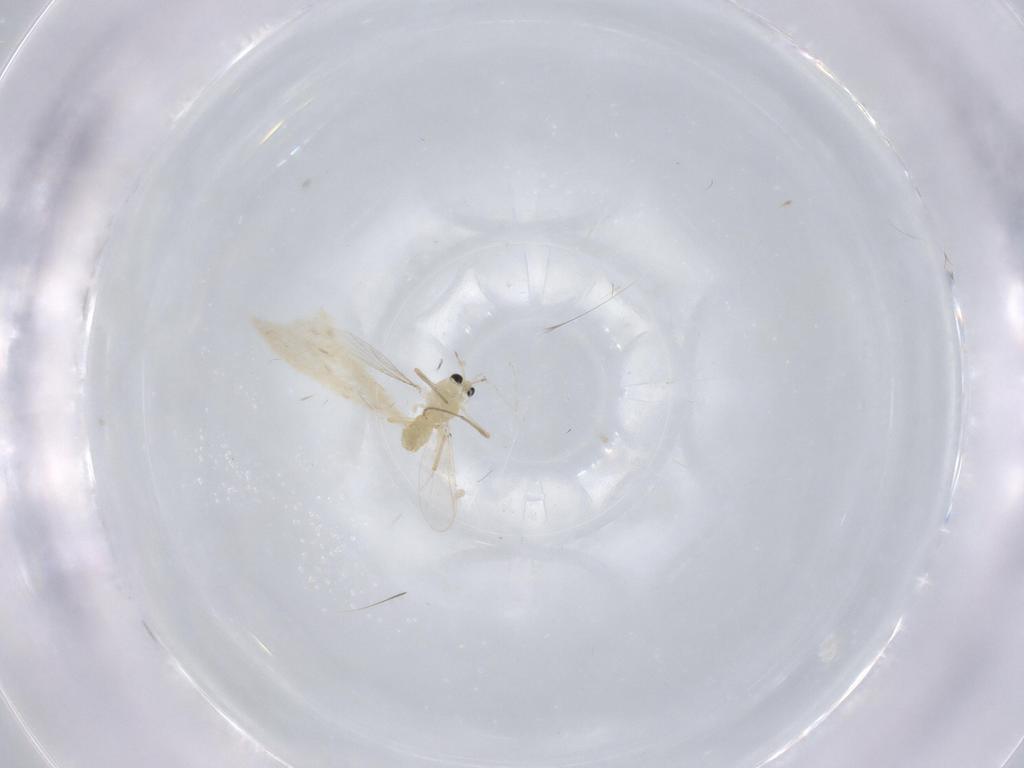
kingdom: Animalia
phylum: Arthropoda
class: Insecta
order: Diptera
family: Chironomidae
